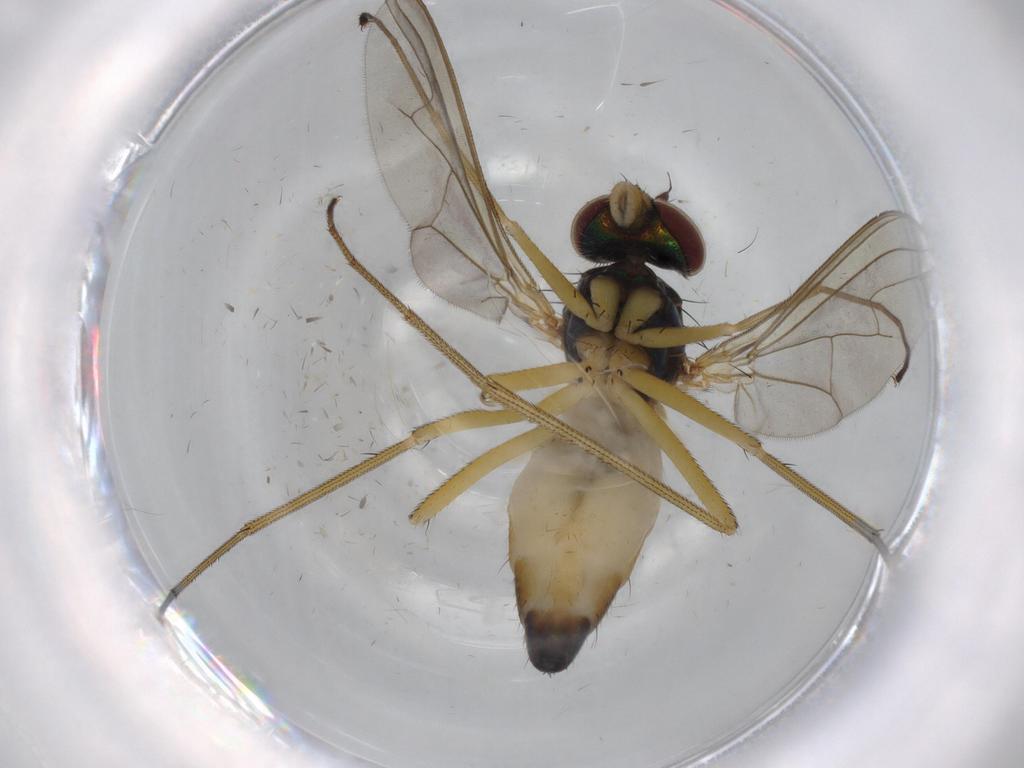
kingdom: Animalia
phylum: Arthropoda
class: Insecta
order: Diptera
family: Dolichopodidae
